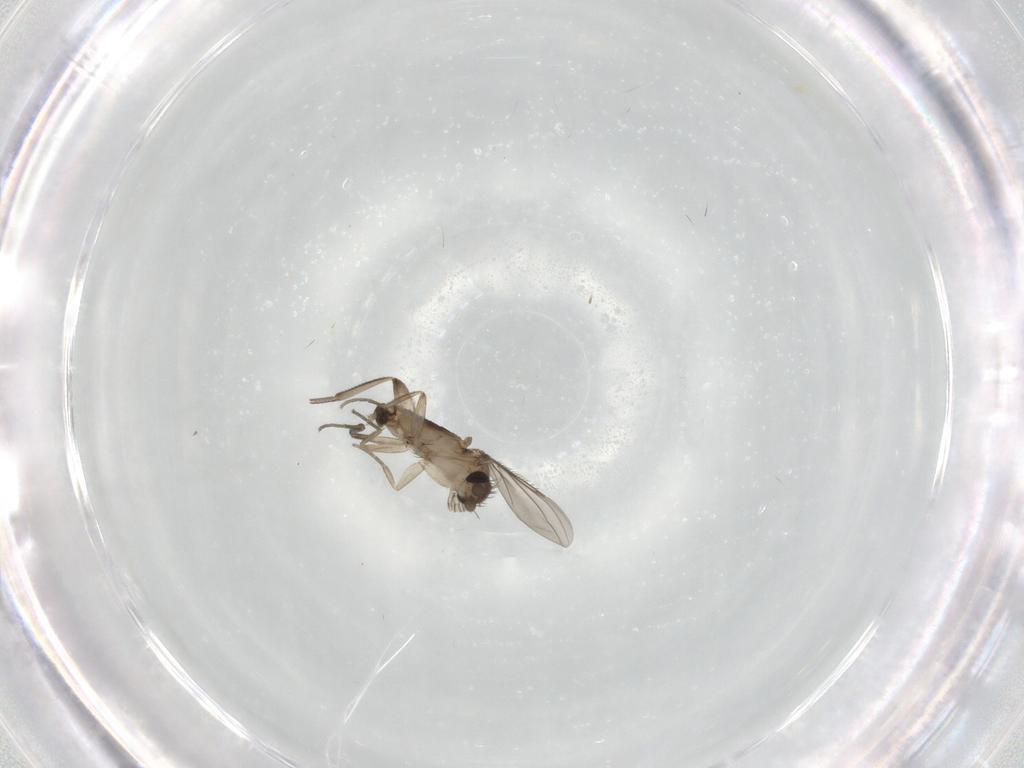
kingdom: Animalia
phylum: Arthropoda
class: Insecta
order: Diptera
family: Phoridae
